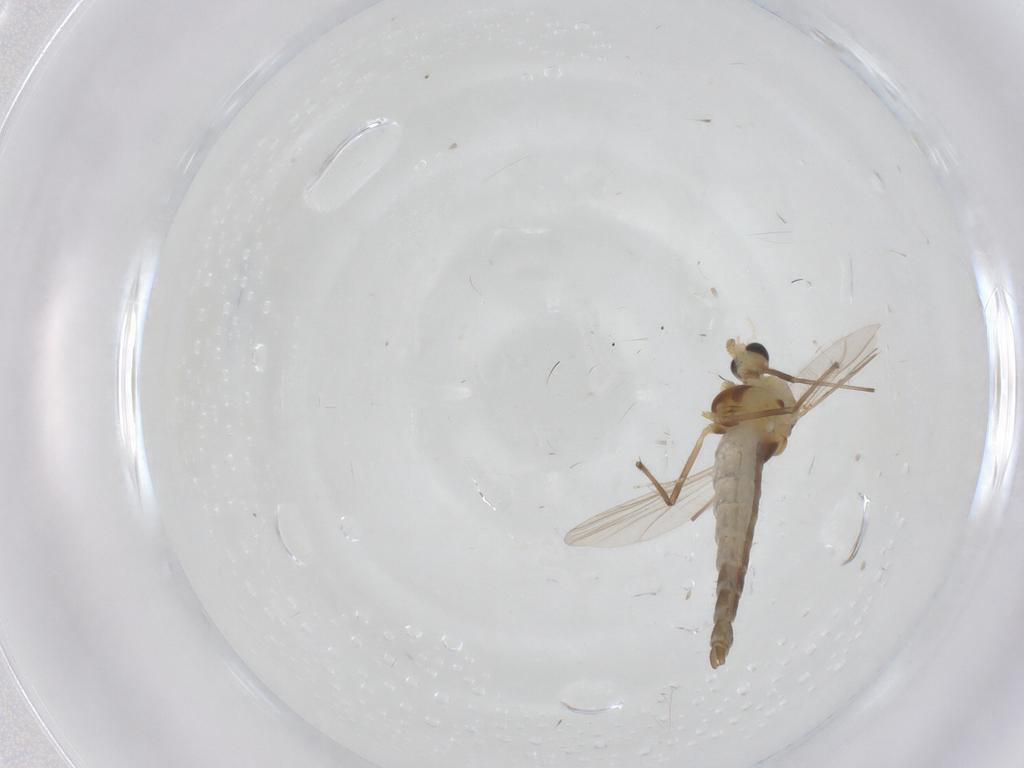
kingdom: Animalia
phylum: Arthropoda
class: Insecta
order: Diptera
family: Chironomidae
